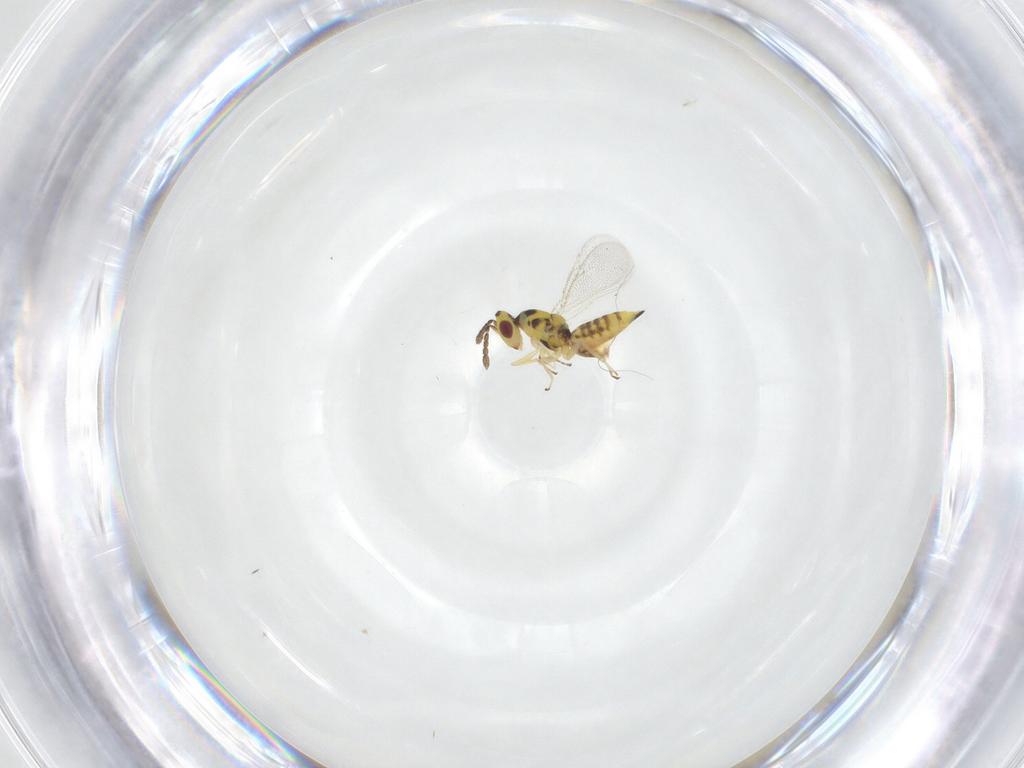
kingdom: Animalia
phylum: Arthropoda
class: Insecta
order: Hymenoptera
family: Eulophidae
